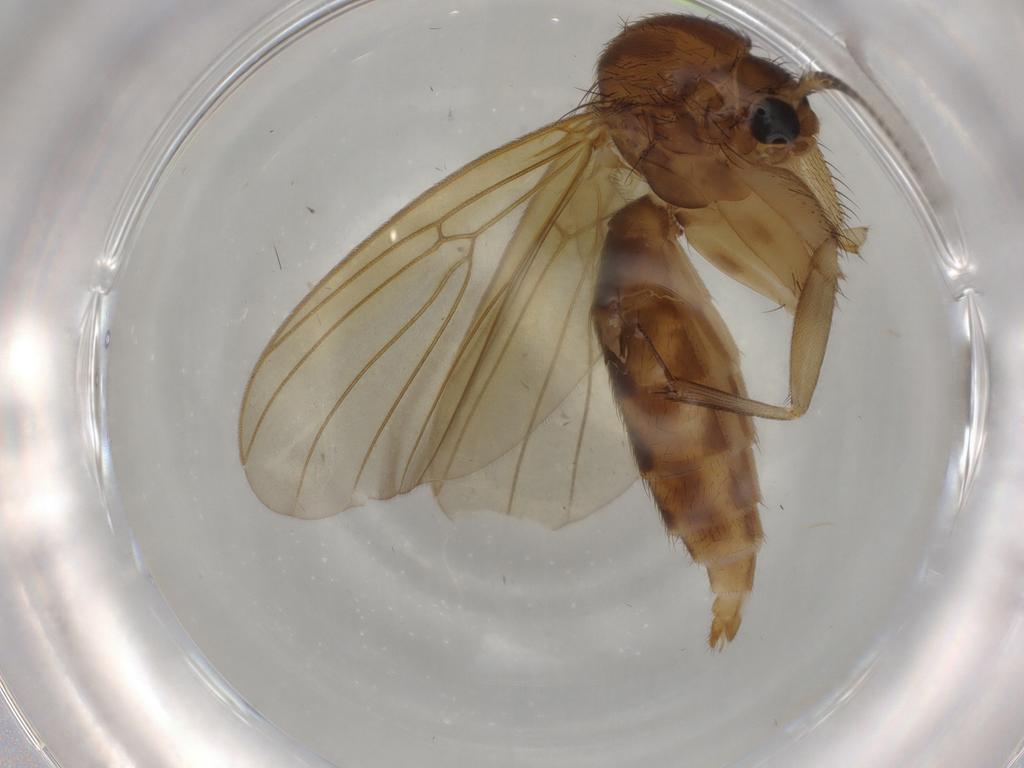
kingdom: Animalia
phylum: Arthropoda
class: Insecta
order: Diptera
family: Mycetophilidae
